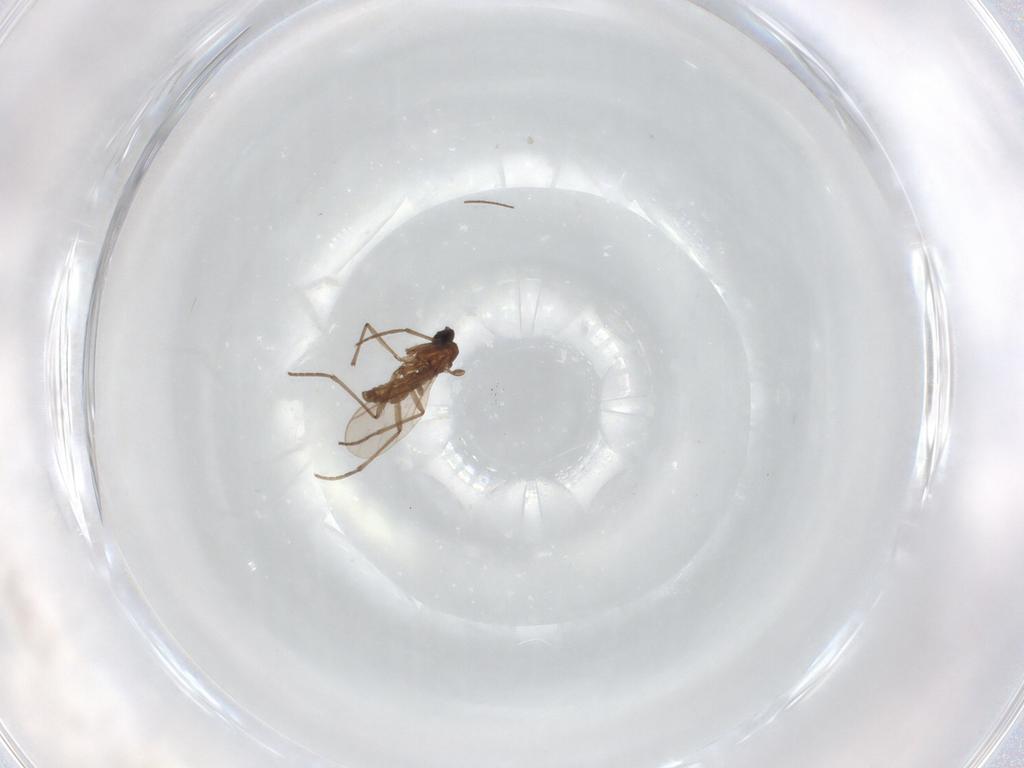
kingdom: Animalia
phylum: Arthropoda
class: Insecta
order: Diptera
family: Sciaridae
